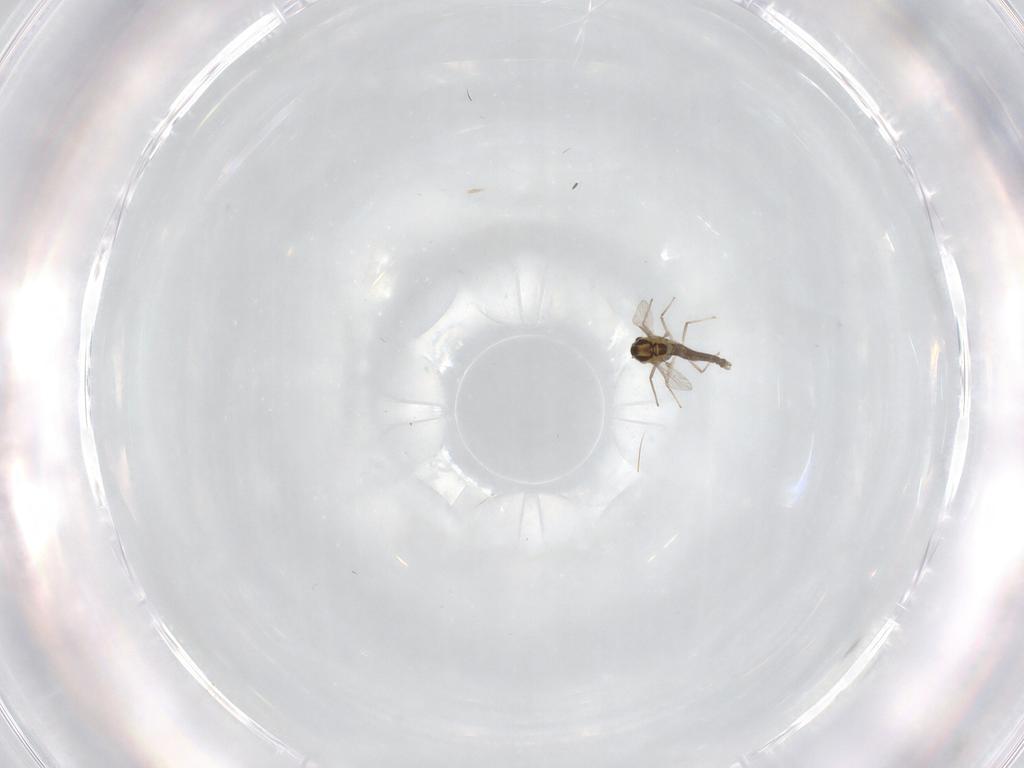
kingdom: Animalia
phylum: Arthropoda
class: Insecta
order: Diptera
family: Chironomidae
